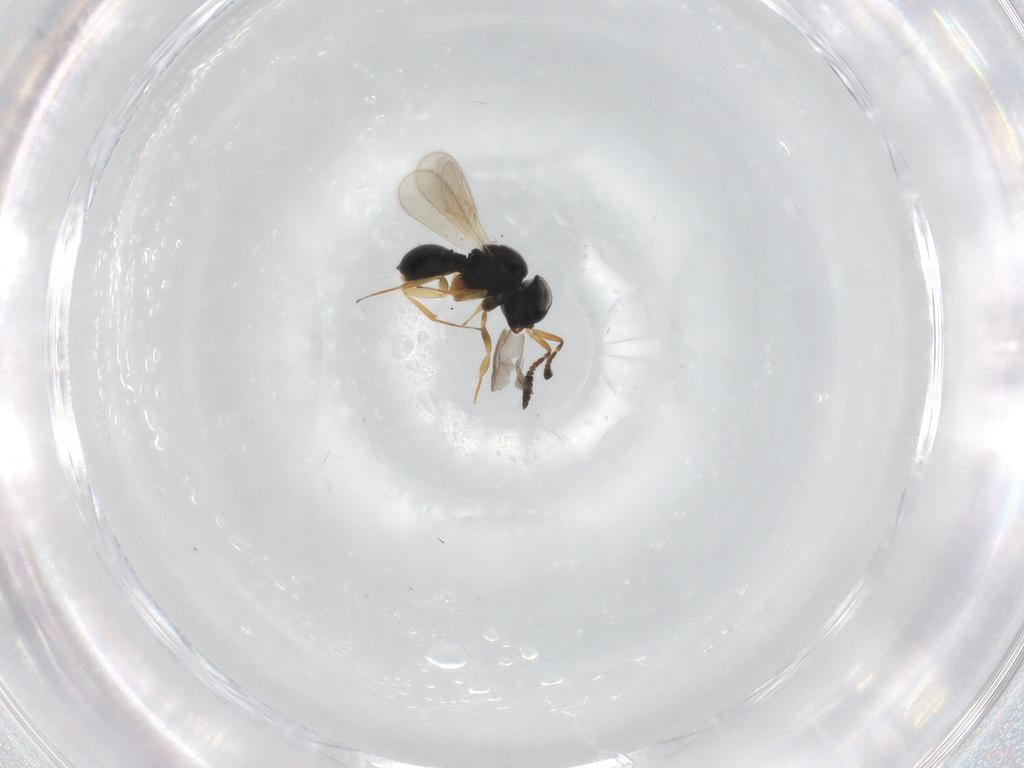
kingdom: Animalia
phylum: Arthropoda
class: Insecta
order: Hymenoptera
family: Scelionidae
